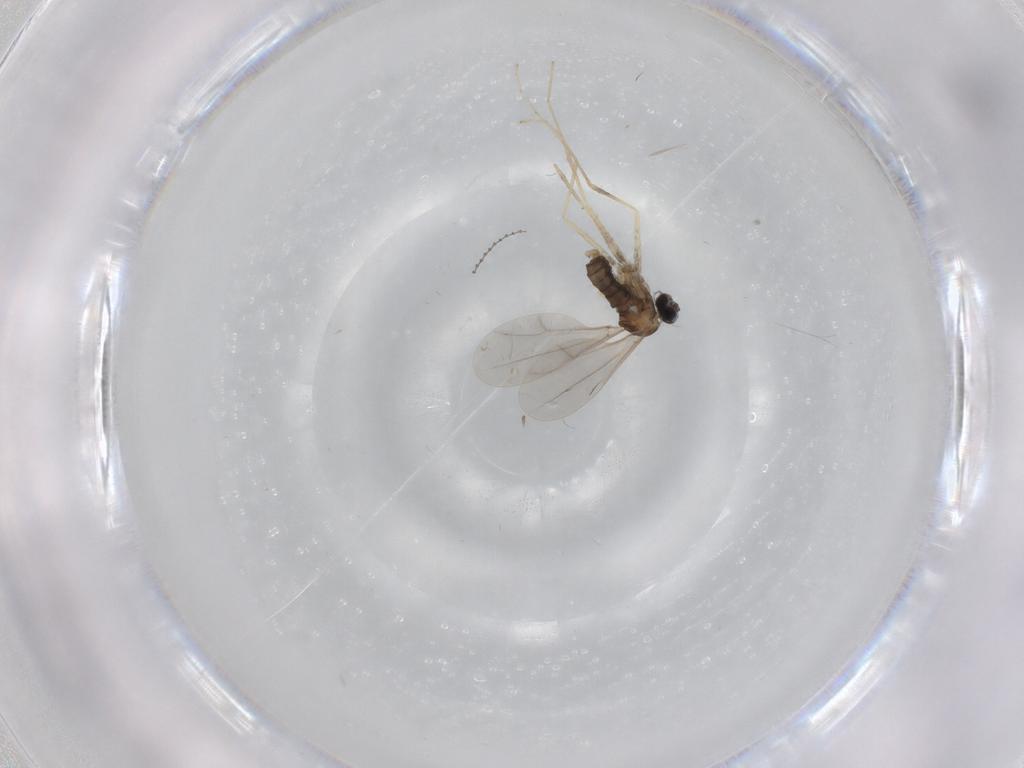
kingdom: Animalia
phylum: Arthropoda
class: Insecta
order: Diptera
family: Cecidomyiidae
